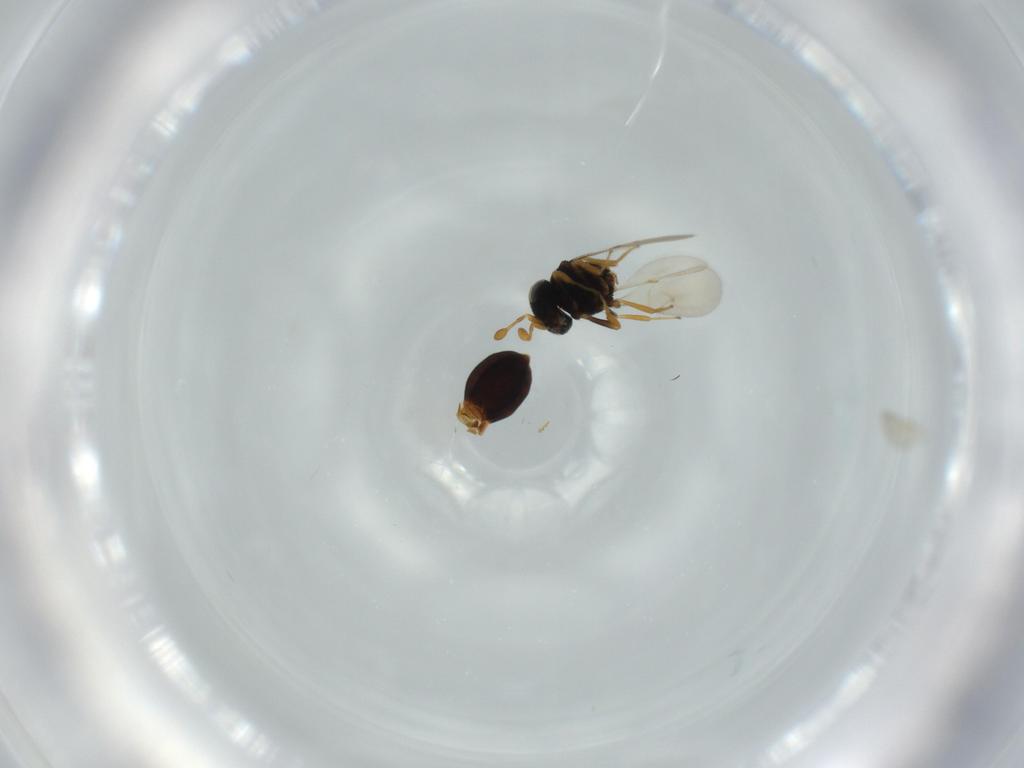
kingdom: Animalia
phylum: Arthropoda
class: Insecta
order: Hymenoptera
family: Scelionidae
